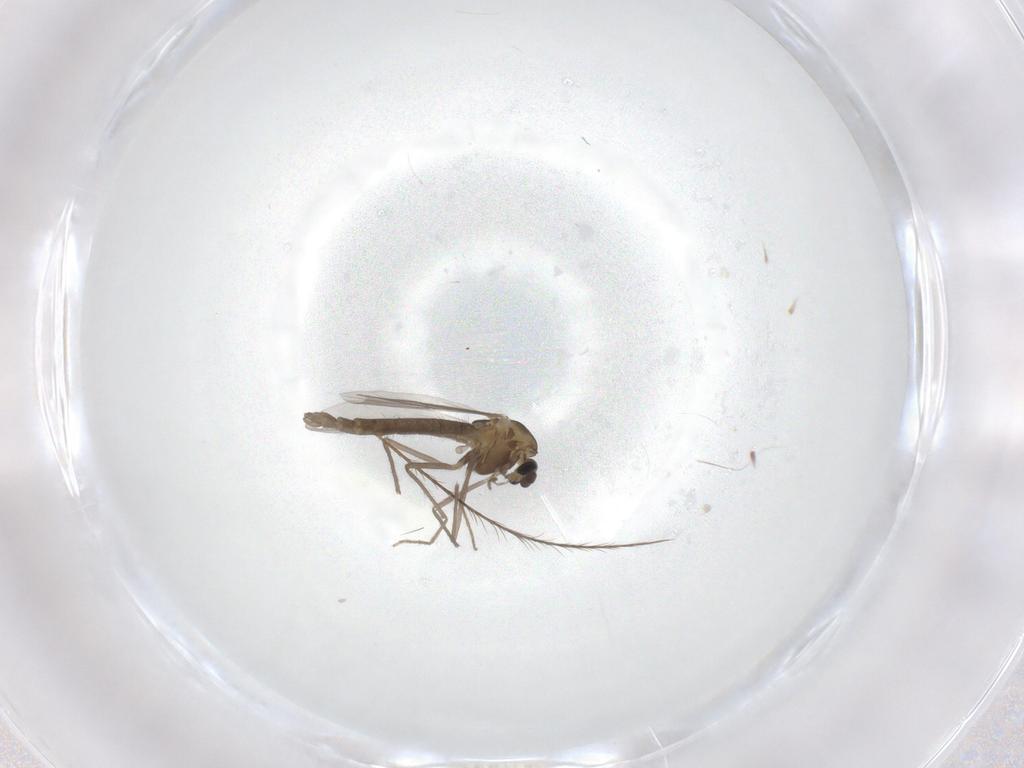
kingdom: Animalia
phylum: Arthropoda
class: Insecta
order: Diptera
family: Chironomidae
